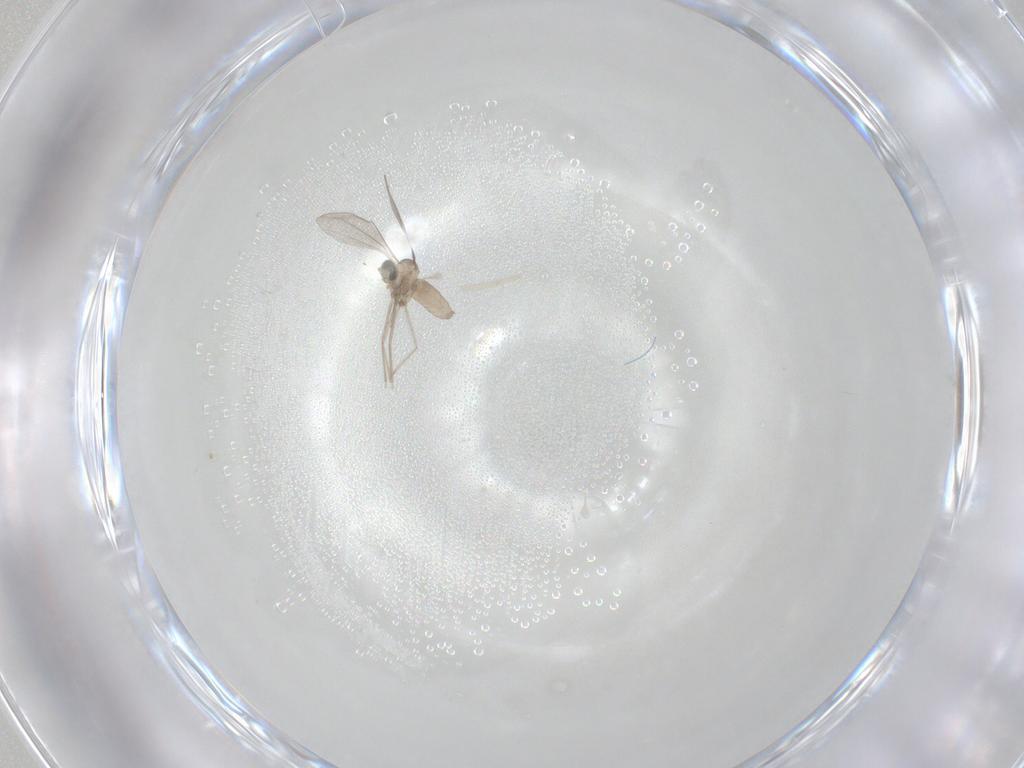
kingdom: Animalia
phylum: Arthropoda
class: Insecta
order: Diptera
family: Cecidomyiidae
